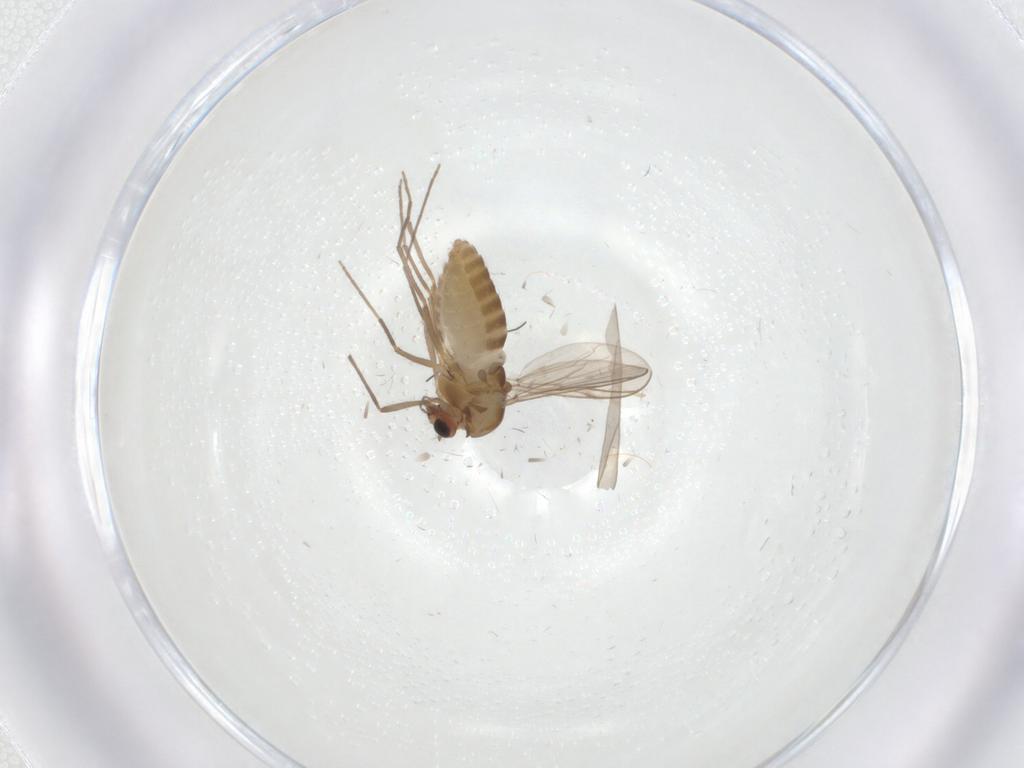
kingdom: Animalia
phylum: Arthropoda
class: Insecta
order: Diptera
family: Chironomidae
